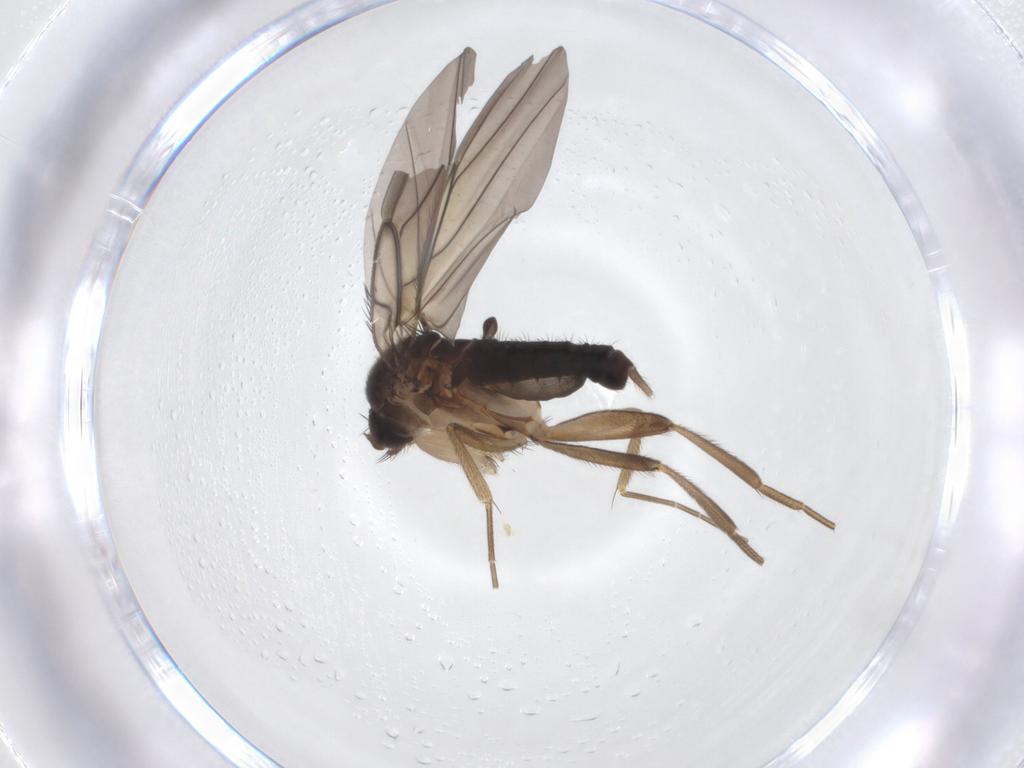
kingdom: Animalia
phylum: Arthropoda
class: Insecta
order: Diptera
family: Phoridae
